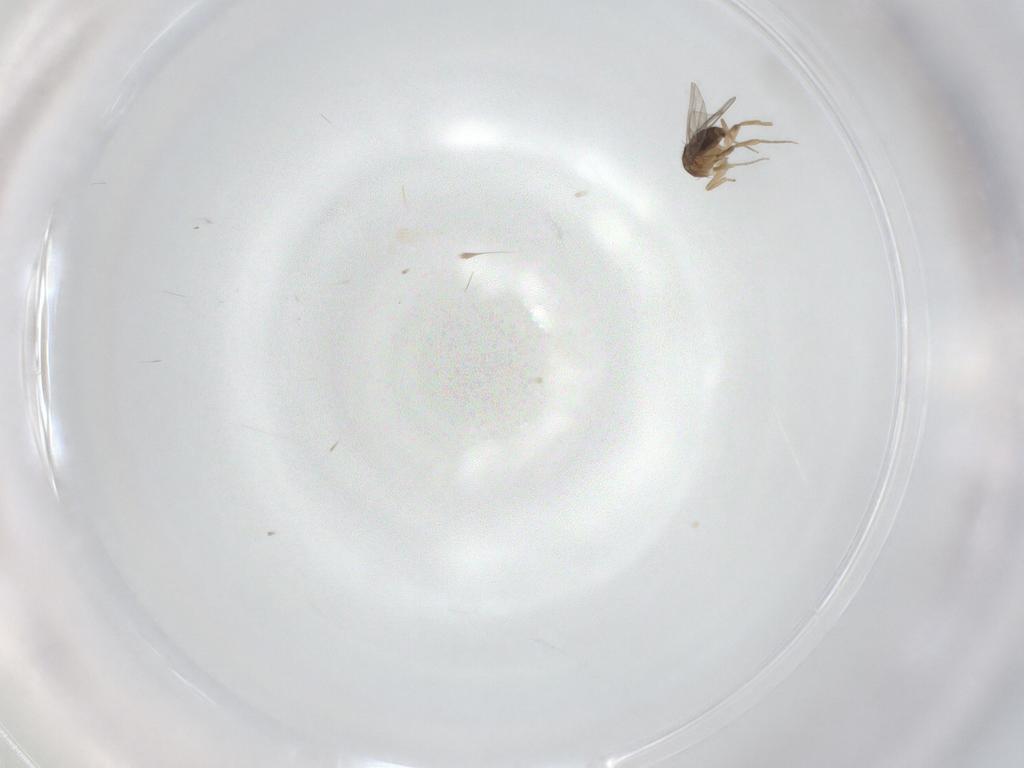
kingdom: Animalia
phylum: Arthropoda
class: Insecta
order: Diptera
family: Phoridae
